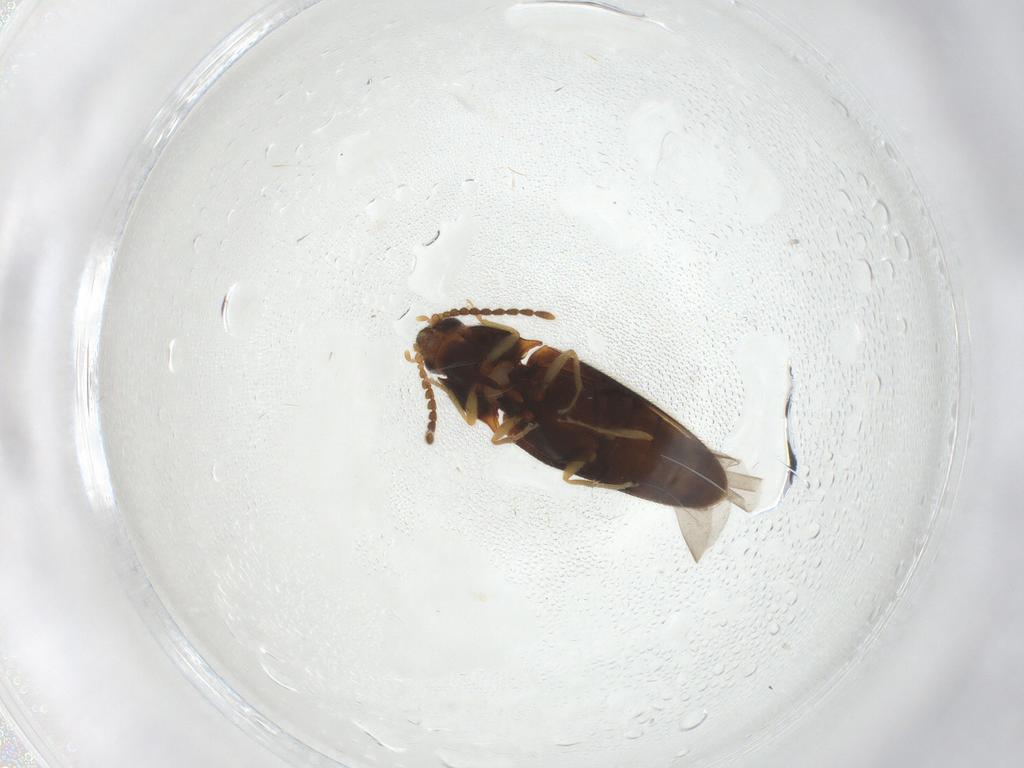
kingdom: Animalia
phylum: Arthropoda
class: Insecta
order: Coleoptera
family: Elateridae
